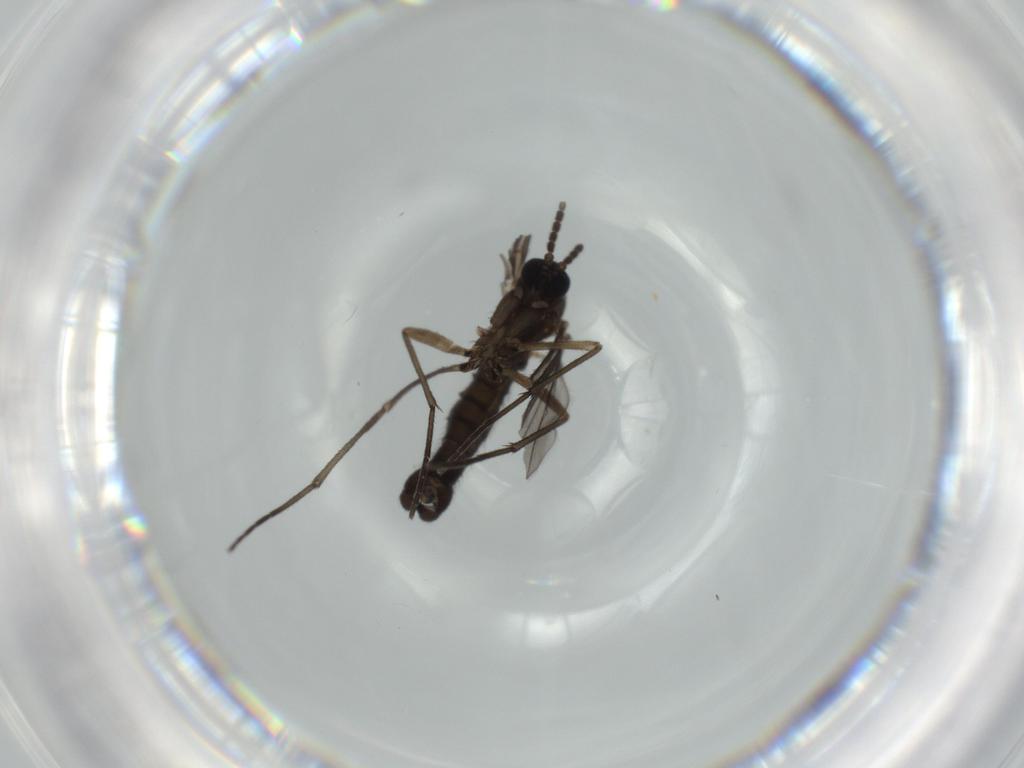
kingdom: Animalia
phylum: Arthropoda
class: Insecta
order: Diptera
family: Sciaridae
